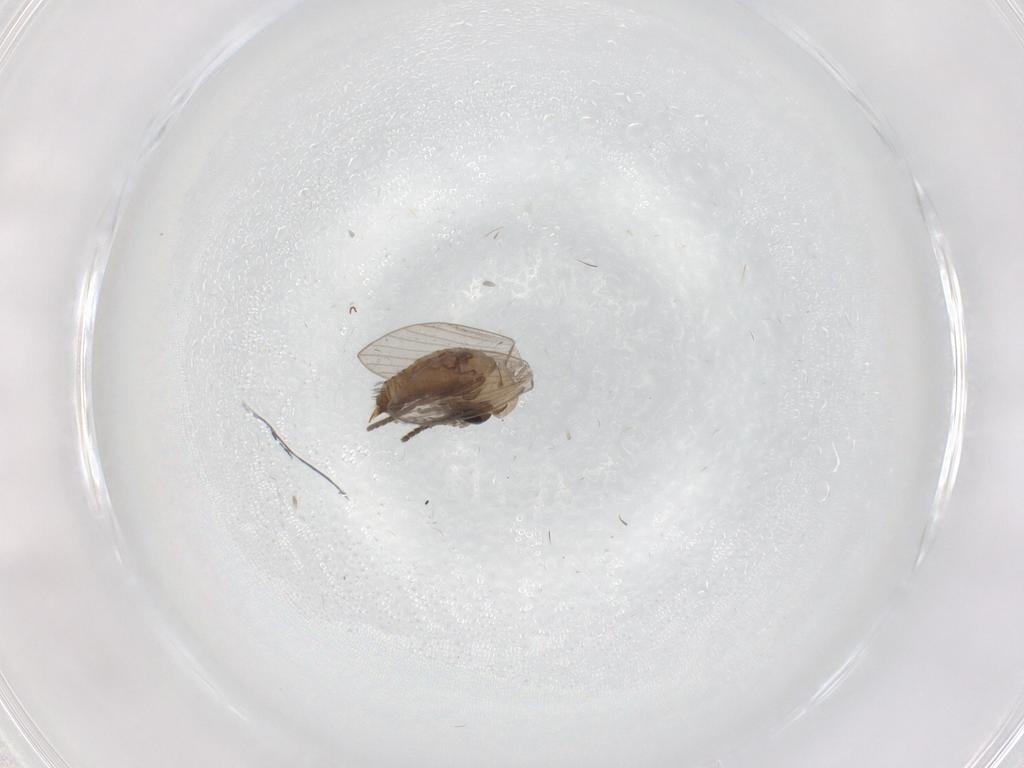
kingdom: Animalia
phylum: Arthropoda
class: Insecta
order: Diptera
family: Psychodidae
